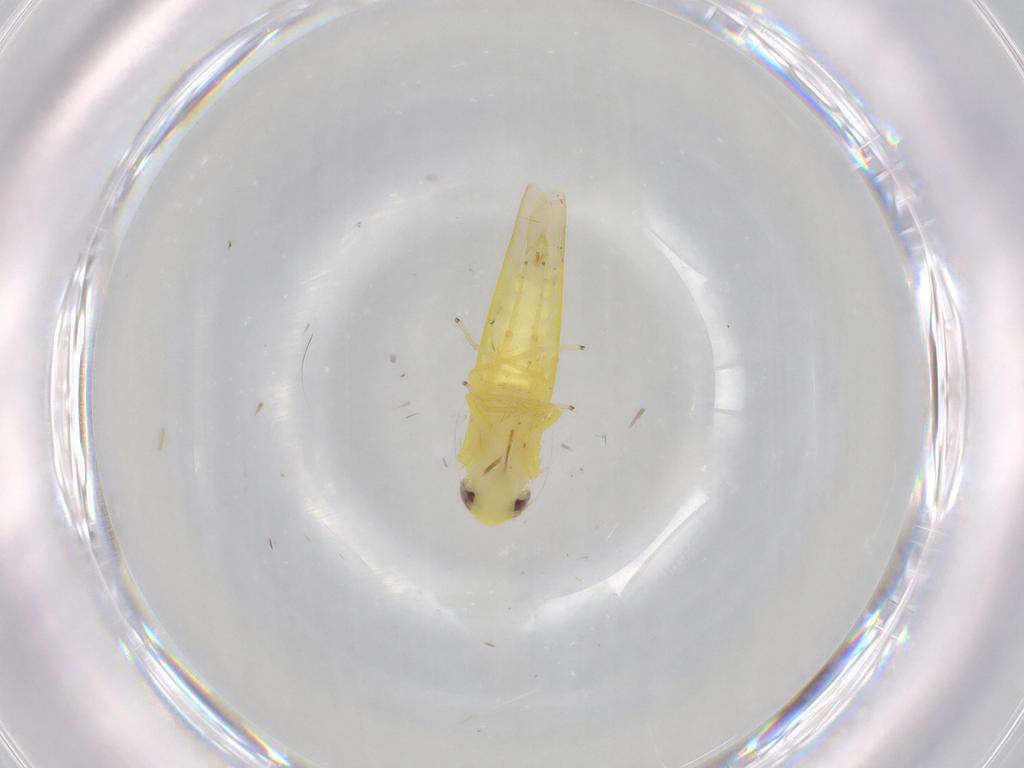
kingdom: Animalia
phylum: Arthropoda
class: Insecta
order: Hemiptera
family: Cicadellidae
